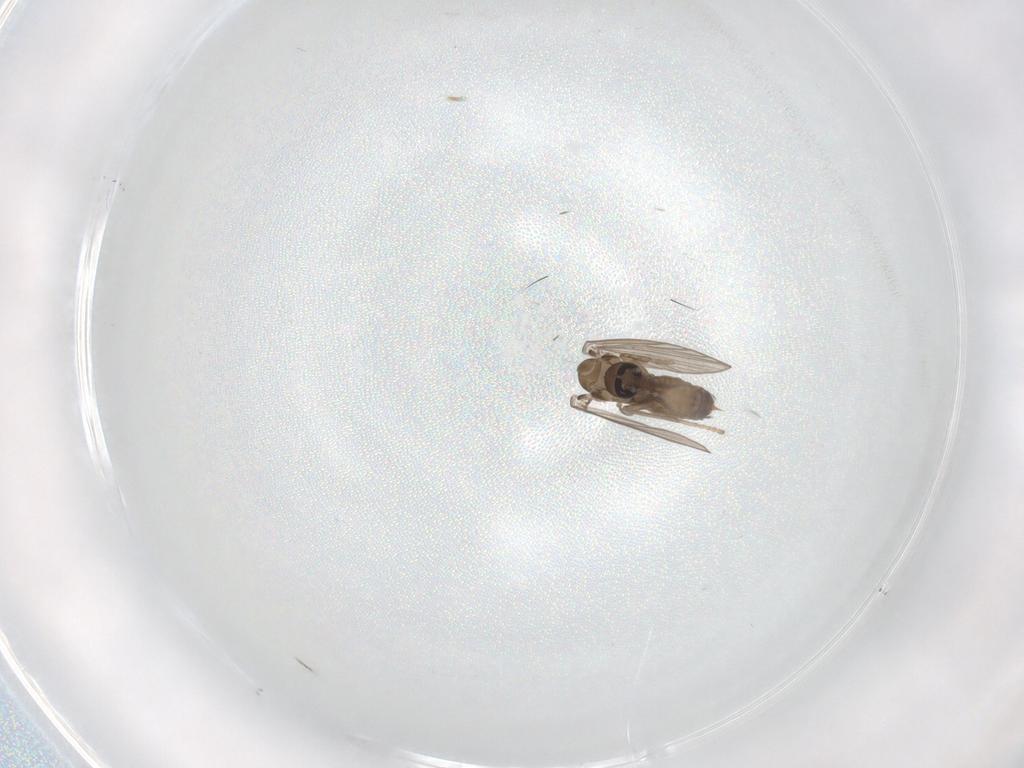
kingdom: Animalia
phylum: Arthropoda
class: Insecta
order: Diptera
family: Psychodidae
